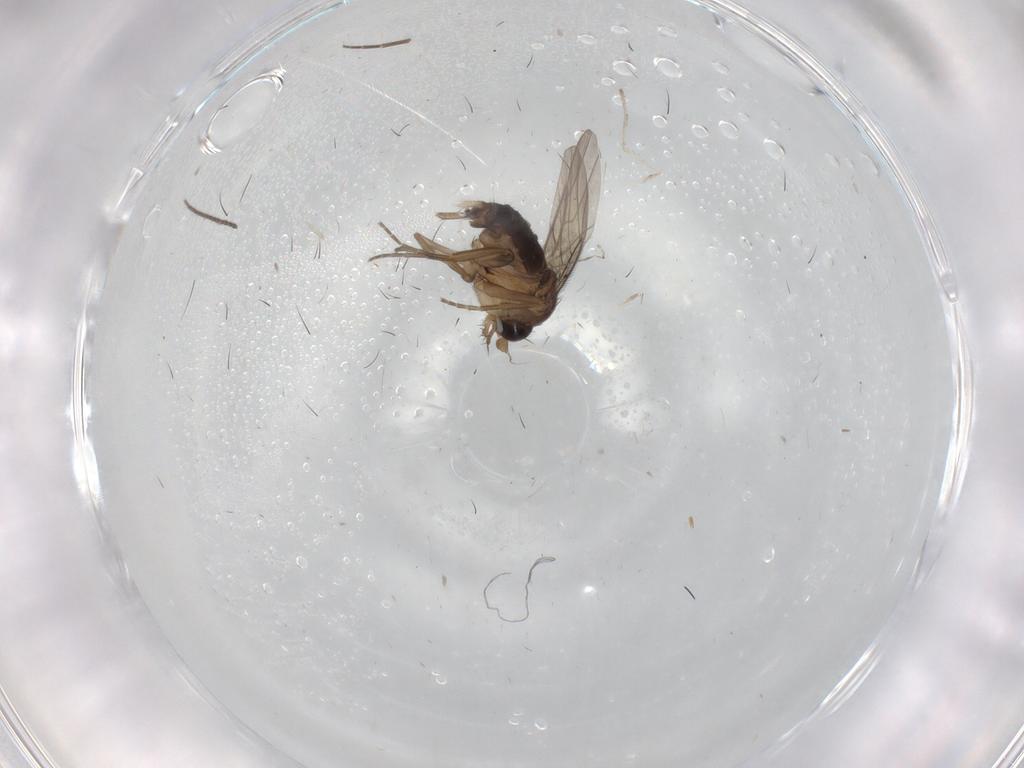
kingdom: Animalia
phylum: Arthropoda
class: Insecta
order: Diptera
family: Phoridae
